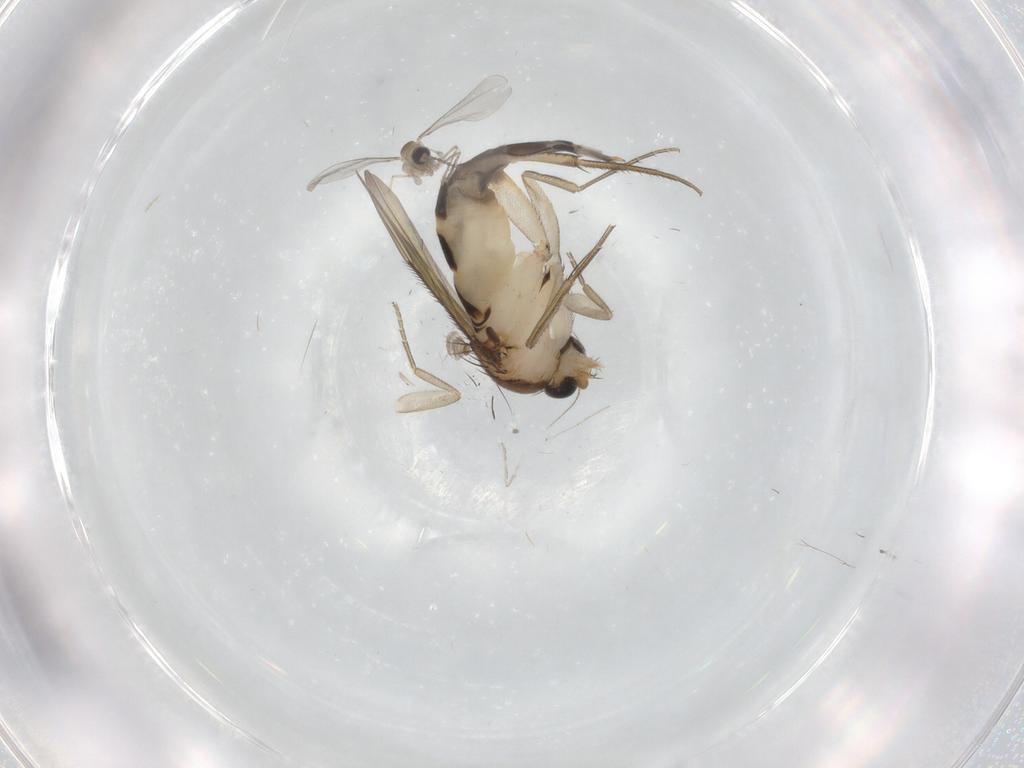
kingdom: Animalia
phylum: Arthropoda
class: Insecta
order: Diptera
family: Phoridae
